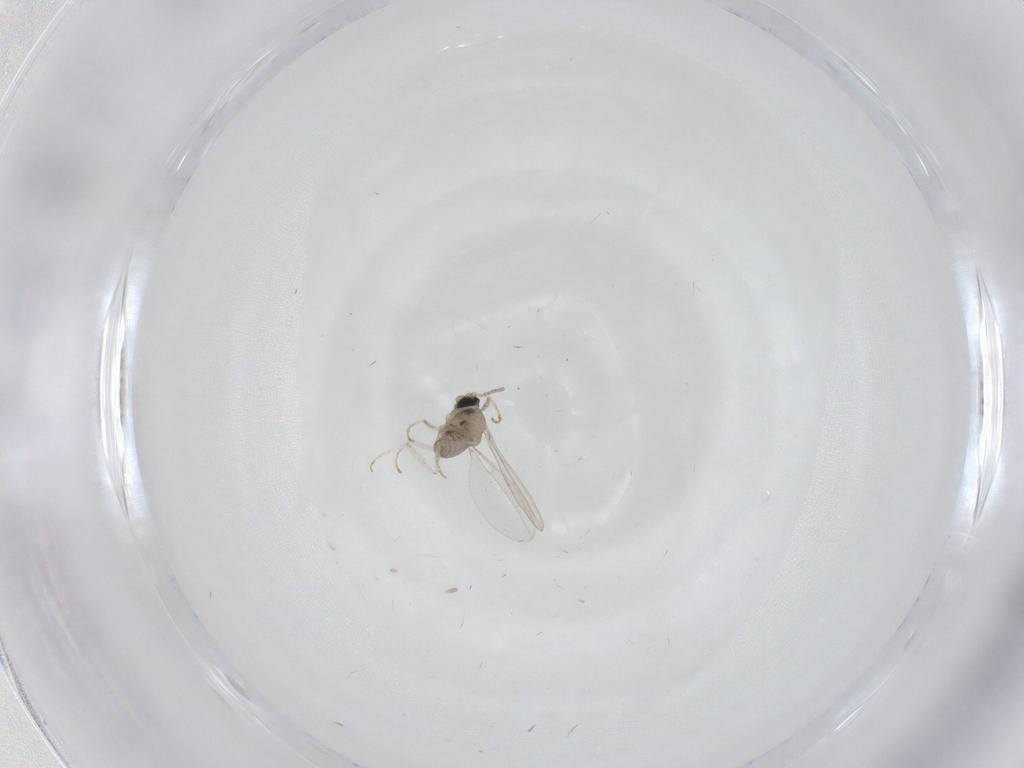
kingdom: Animalia
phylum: Arthropoda
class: Insecta
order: Diptera
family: Cecidomyiidae
